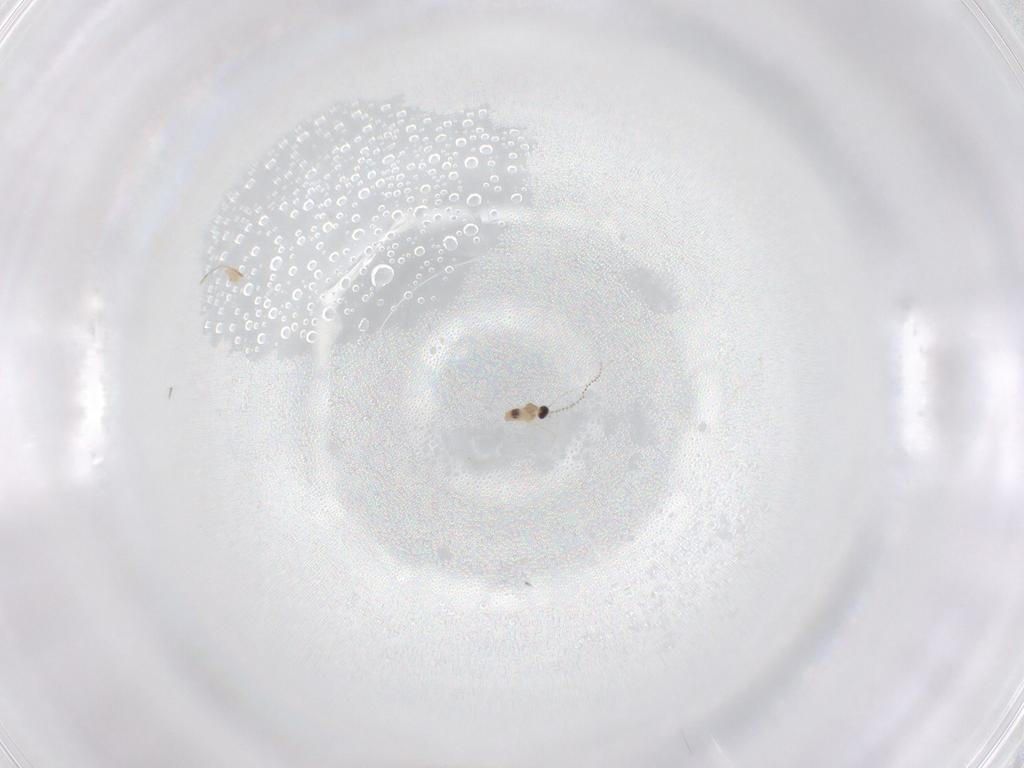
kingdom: Animalia
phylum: Arthropoda
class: Insecta
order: Diptera
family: Cecidomyiidae
